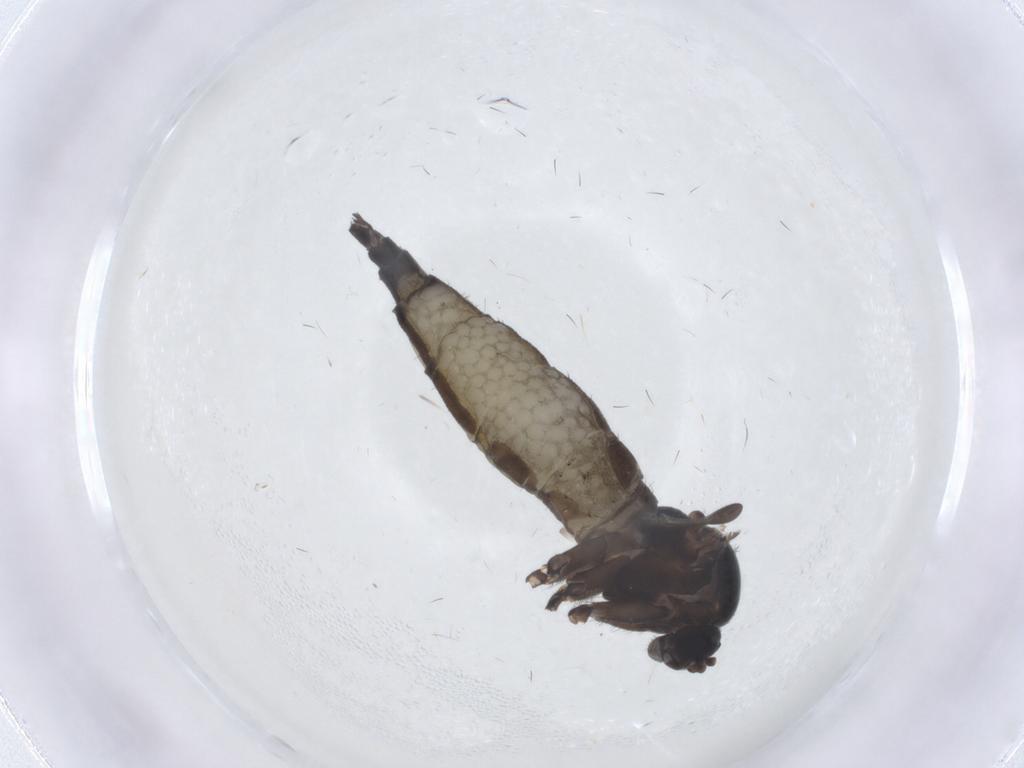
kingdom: Animalia
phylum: Arthropoda
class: Insecta
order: Diptera
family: Sciaridae
